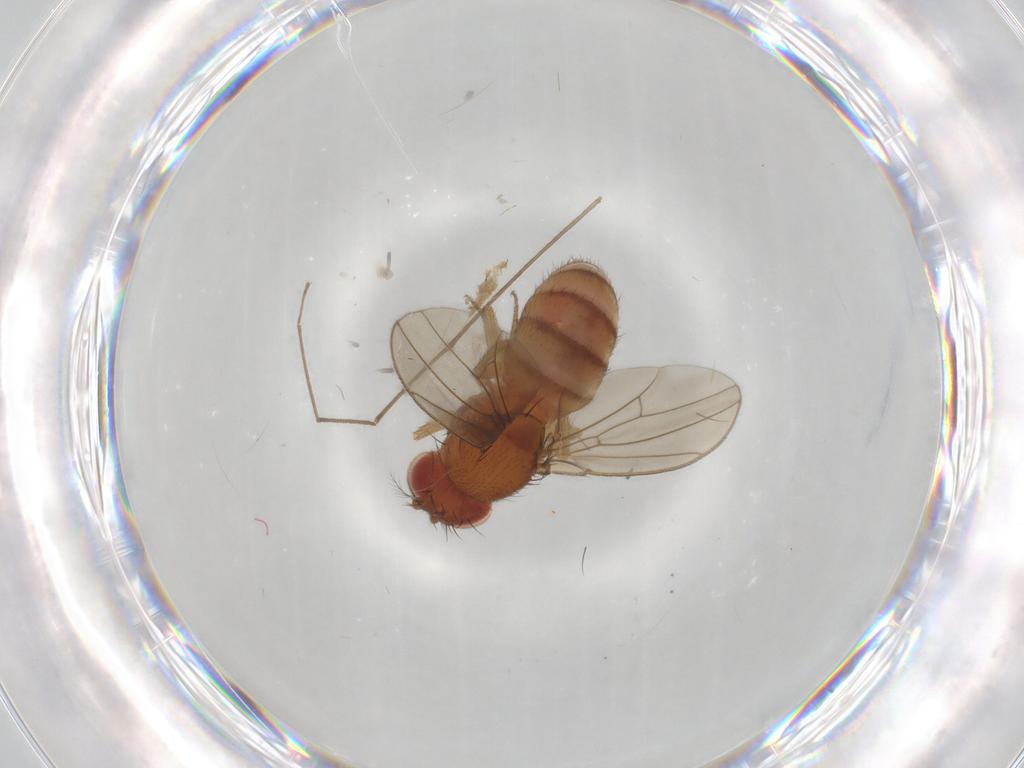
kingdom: Animalia
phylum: Arthropoda
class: Insecta
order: Diptera
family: Drosophilidae
